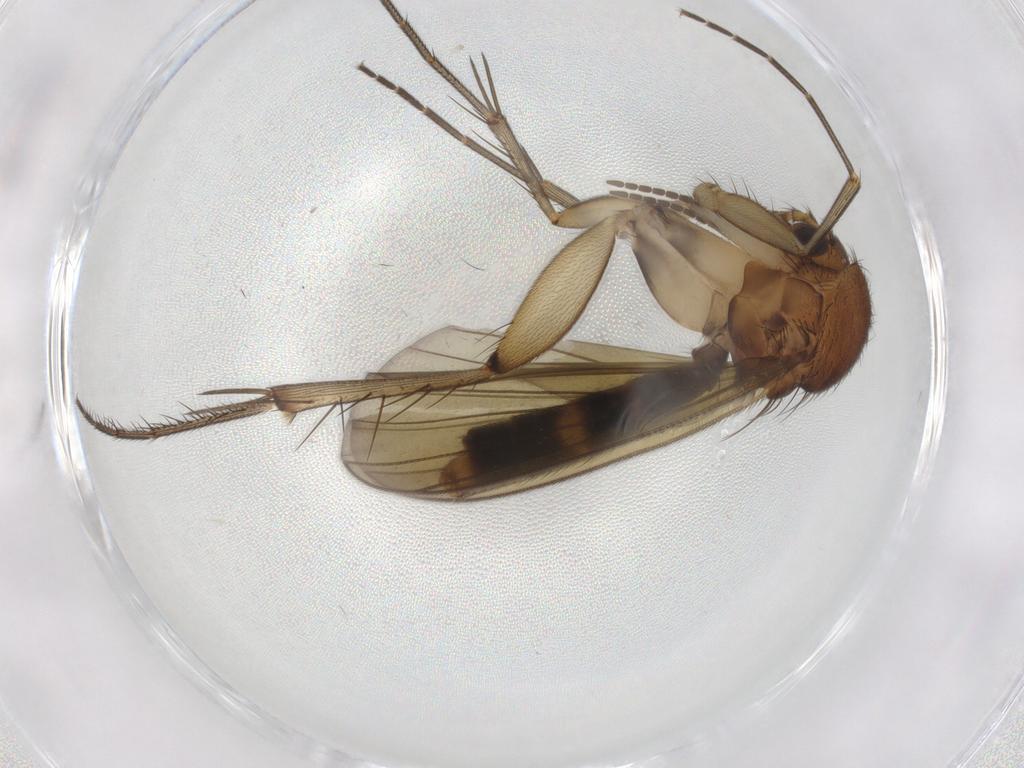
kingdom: Animalia
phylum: Arthropoda
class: Insecta
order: Diptera
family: Mycetophilidae
